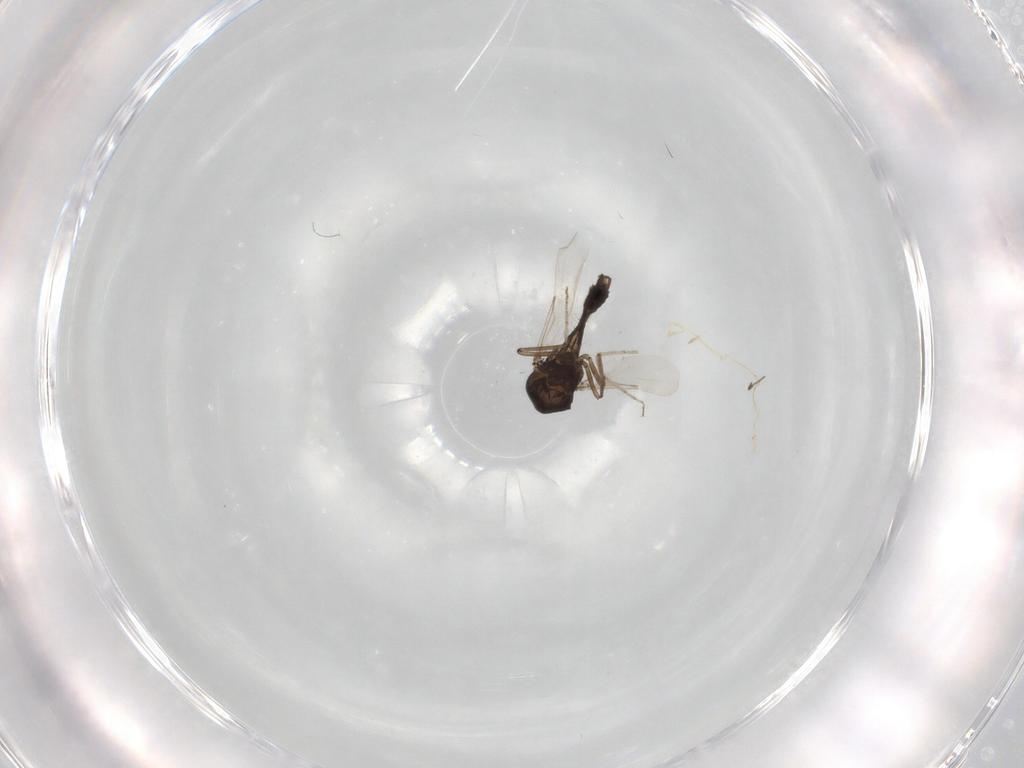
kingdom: Animalia
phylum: Arthropoda
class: Insecta
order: Diptera
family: Chironomidae
